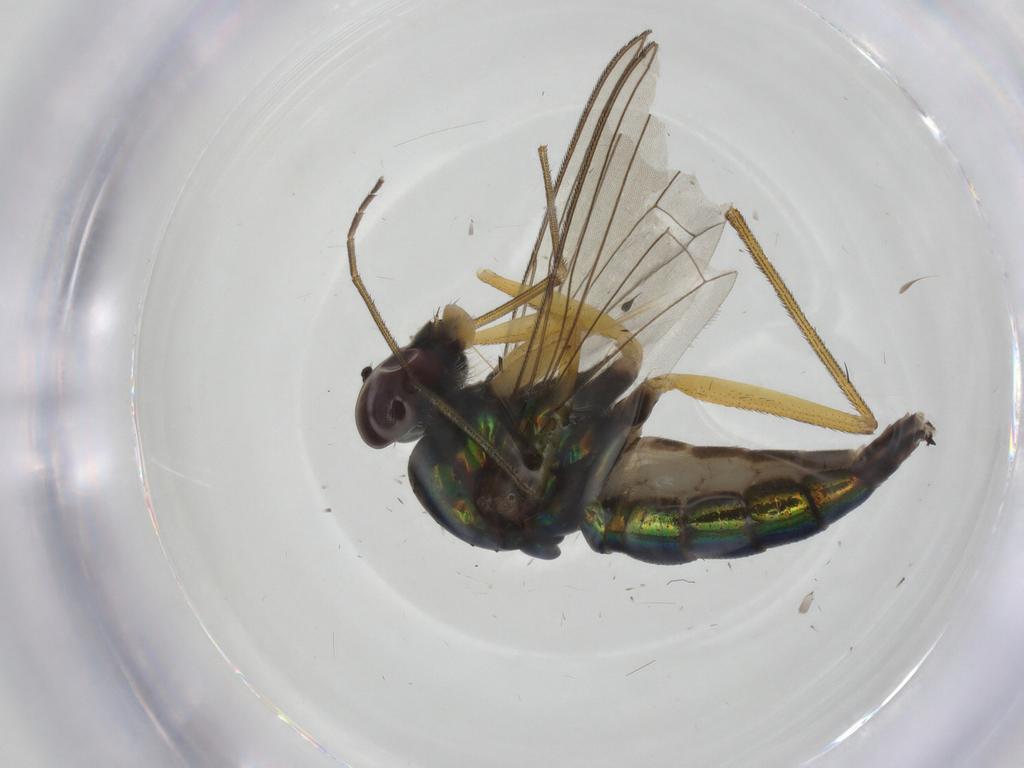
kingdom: Animalia
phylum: Arthropoda
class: Insecta
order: Diptera
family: Dolichopodidae
